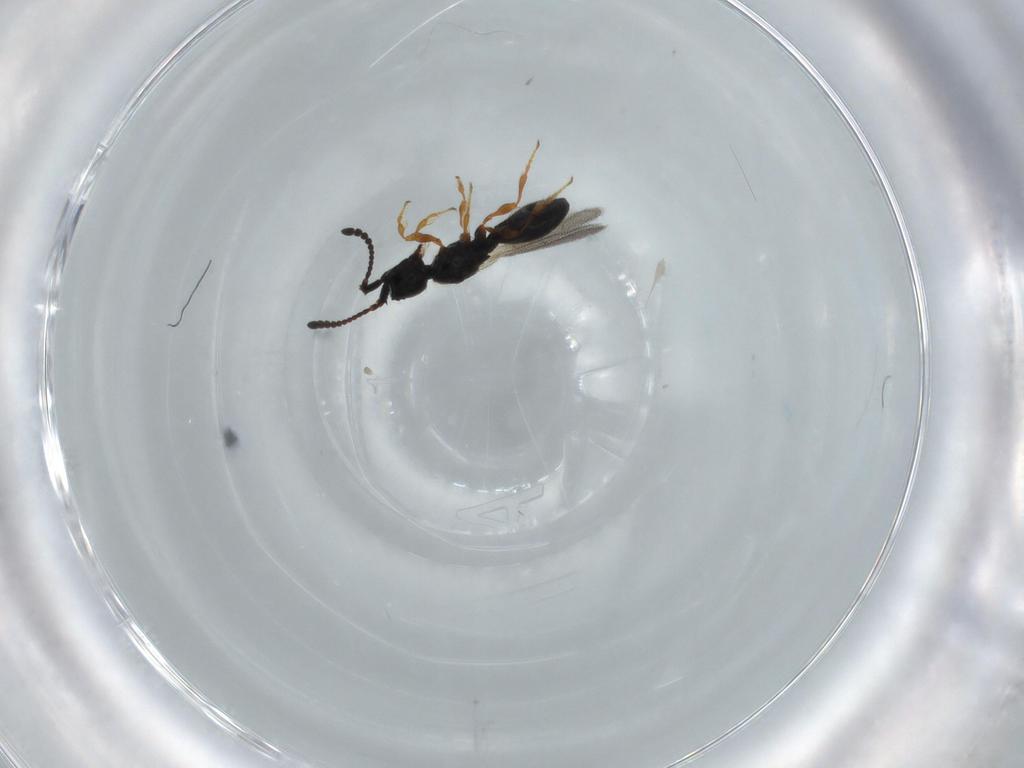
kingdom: Animalia
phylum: Arthropoda
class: Insecta
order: Hymenoptera
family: Diapriidae
